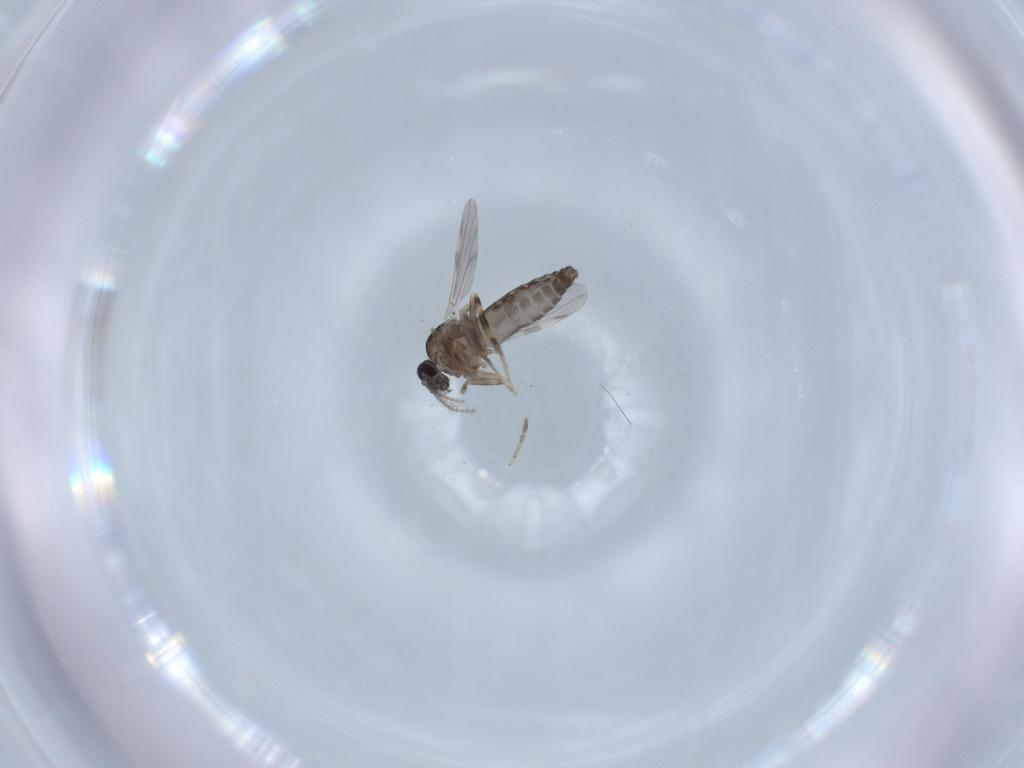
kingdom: Animalia
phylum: Arthropoda
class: Insecta
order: Diptera
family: Ceratopogonidae
